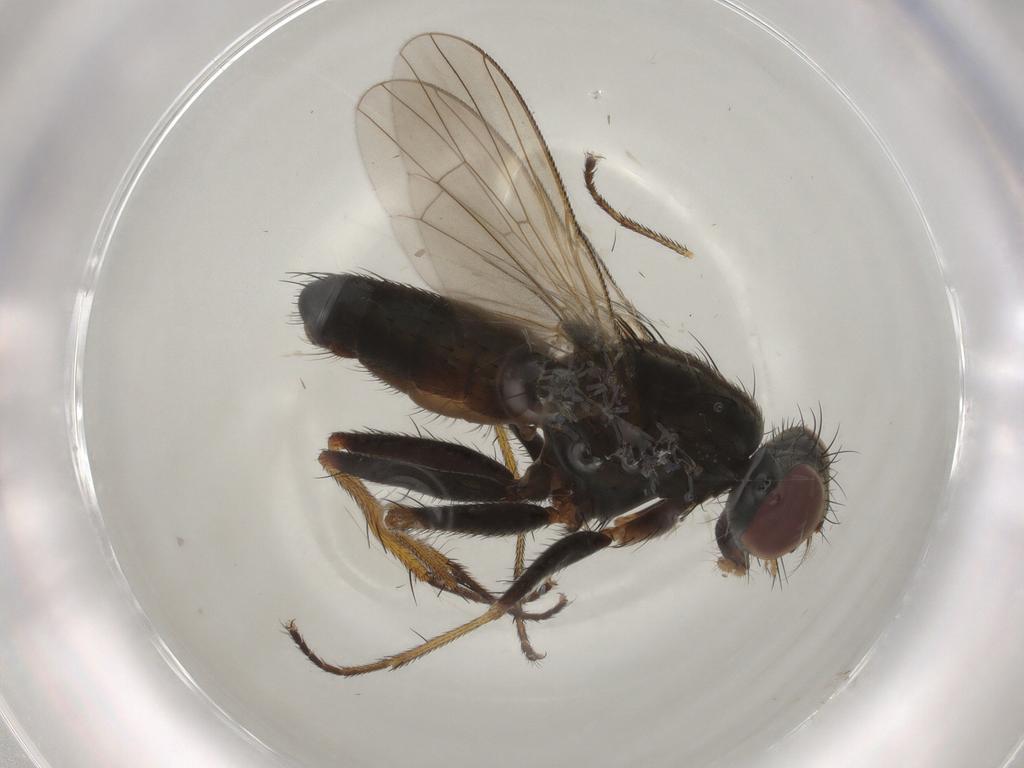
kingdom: Animalia
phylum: Arthropoda
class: Insecta
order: Diptera
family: Muscidae
